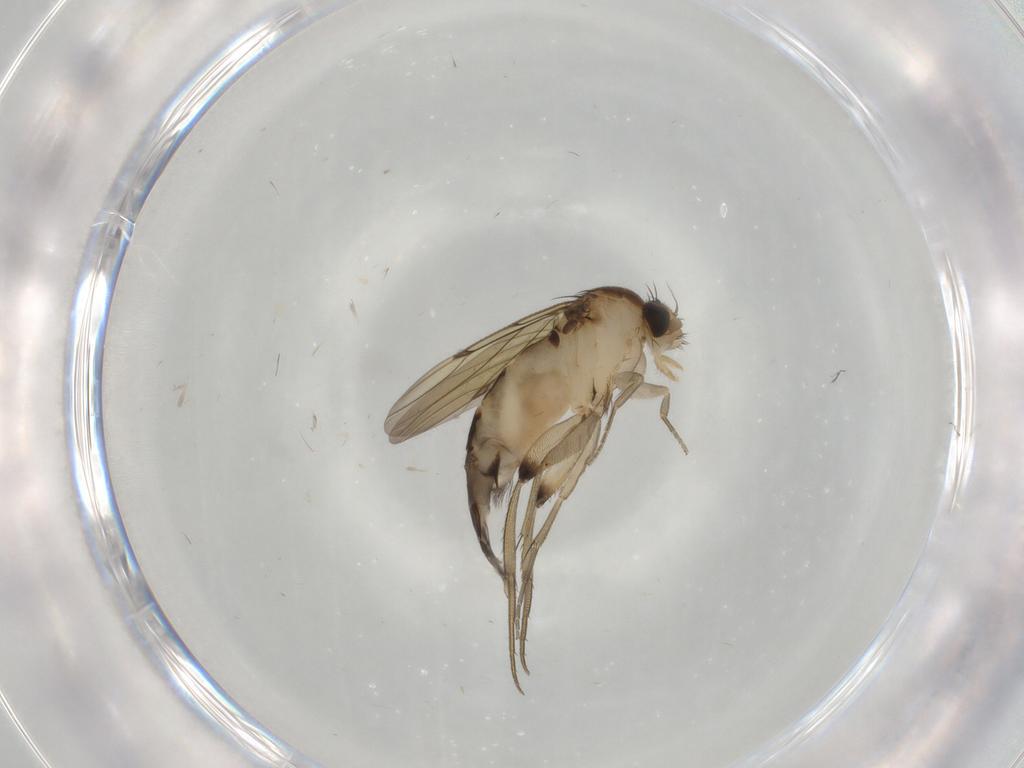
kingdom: Animalia
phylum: Arthropoda
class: Insecta
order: Diptera
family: Phoridae
